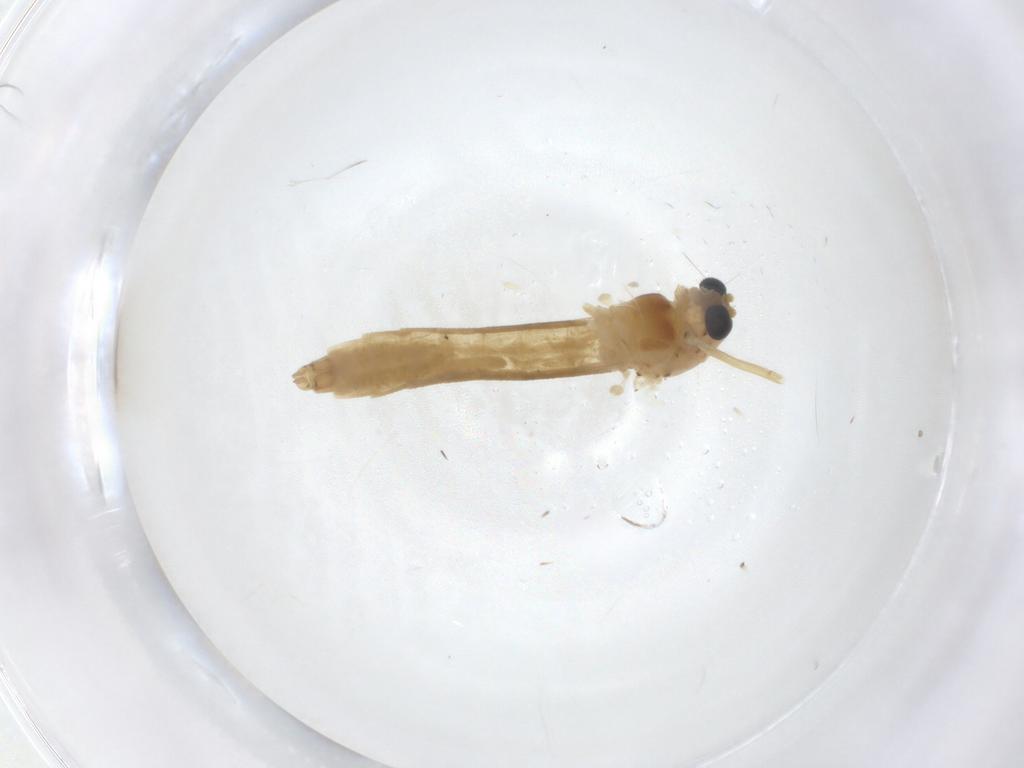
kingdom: Animalia
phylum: Arthropoda
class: Insecta
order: Diptera
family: Chironomidae
